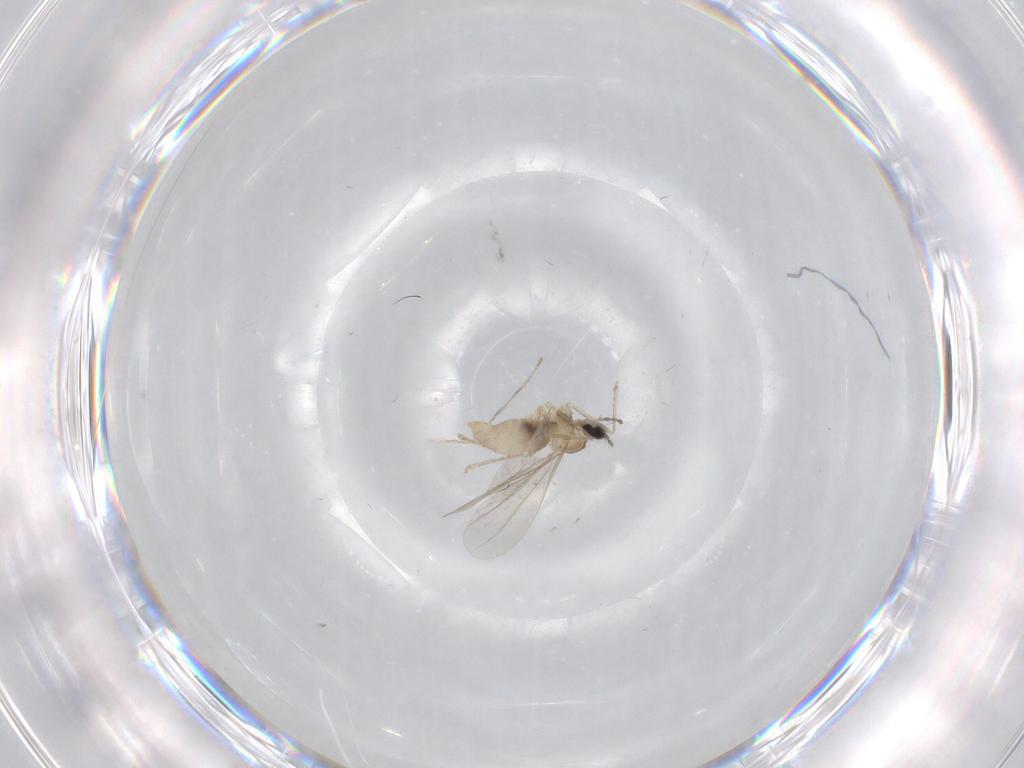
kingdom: Animalia
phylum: Arthropoda
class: Insecta
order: Diptera
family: Cecidomyiidae
